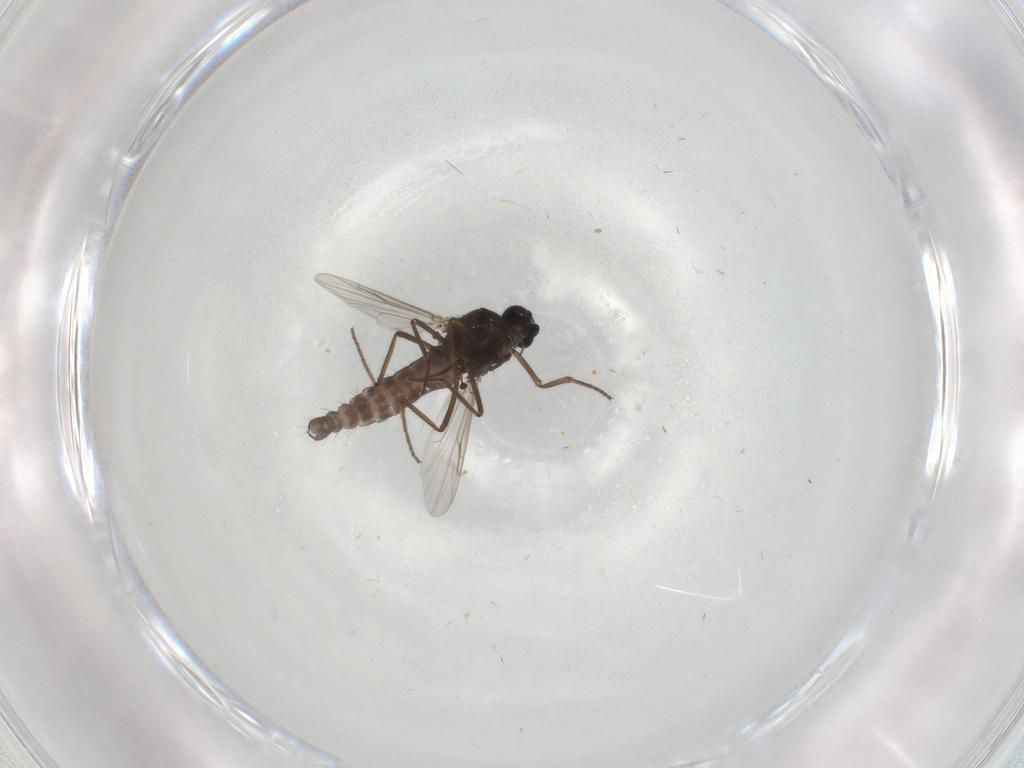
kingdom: Animalia
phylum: Arthropoda
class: Insecta
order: Diptera
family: Ceratopogonidae
